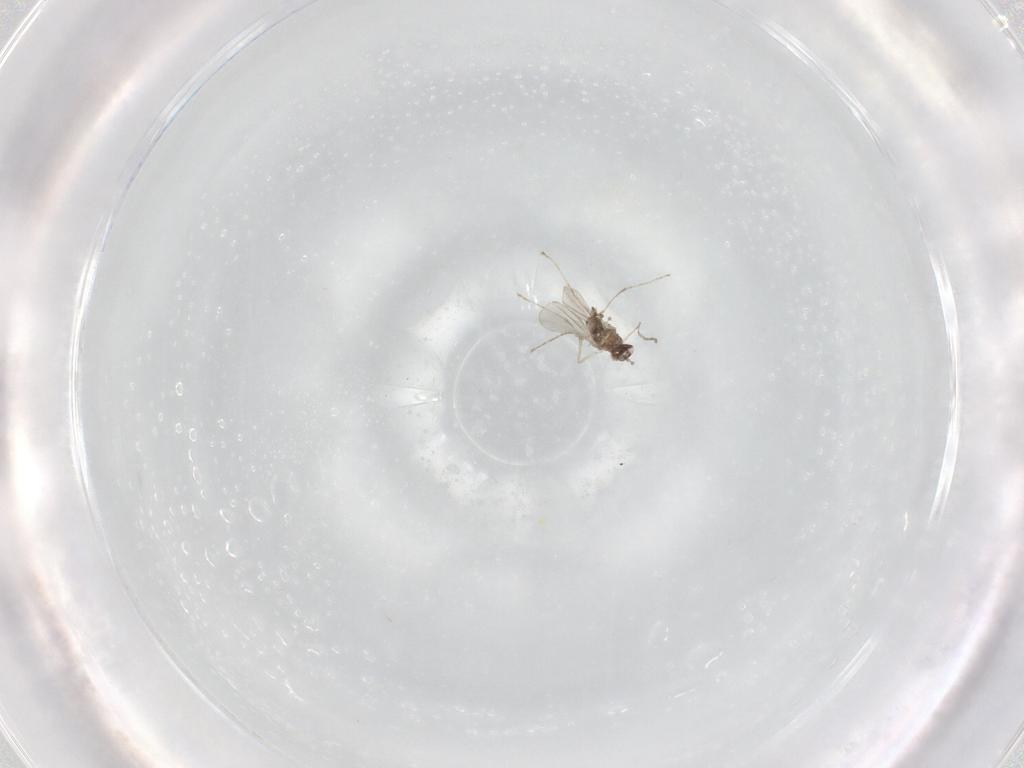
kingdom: Animalia
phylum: Arthropoda
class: Insecta
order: Diptera
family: Cecidomyiidae
